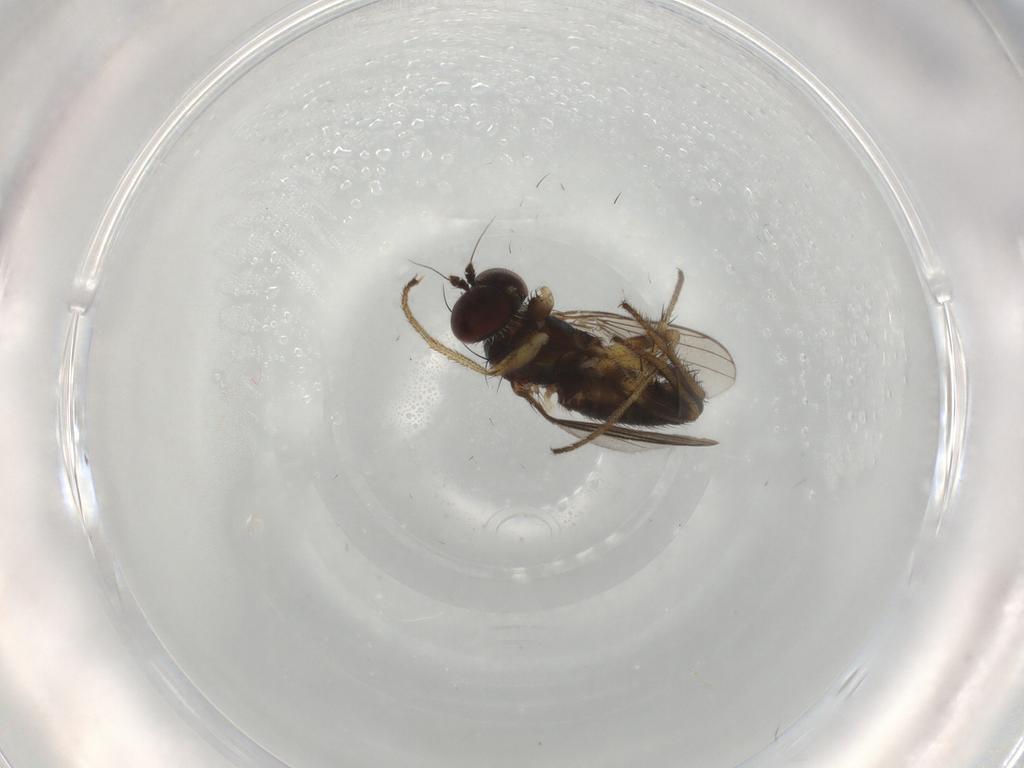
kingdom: Animalia
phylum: Arthropoda
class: Insecta
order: Diptera
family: Dolichopodidae
